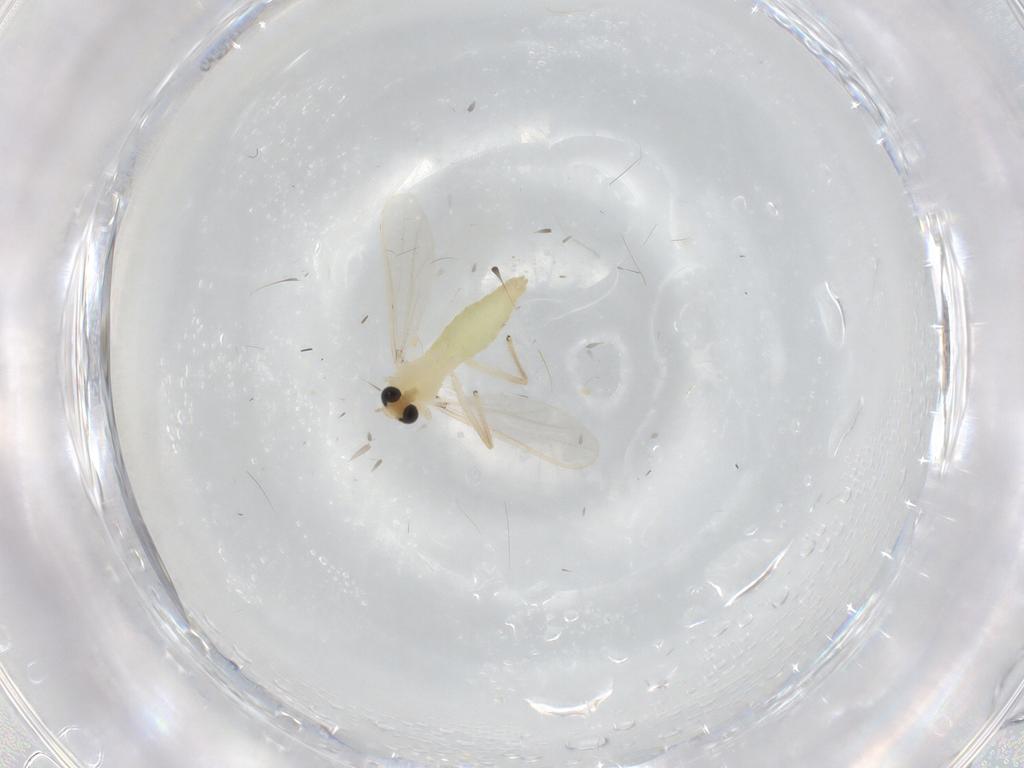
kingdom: Animalia
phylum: Arthropoda
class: Insecta
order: Diptera
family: Chironomidae
